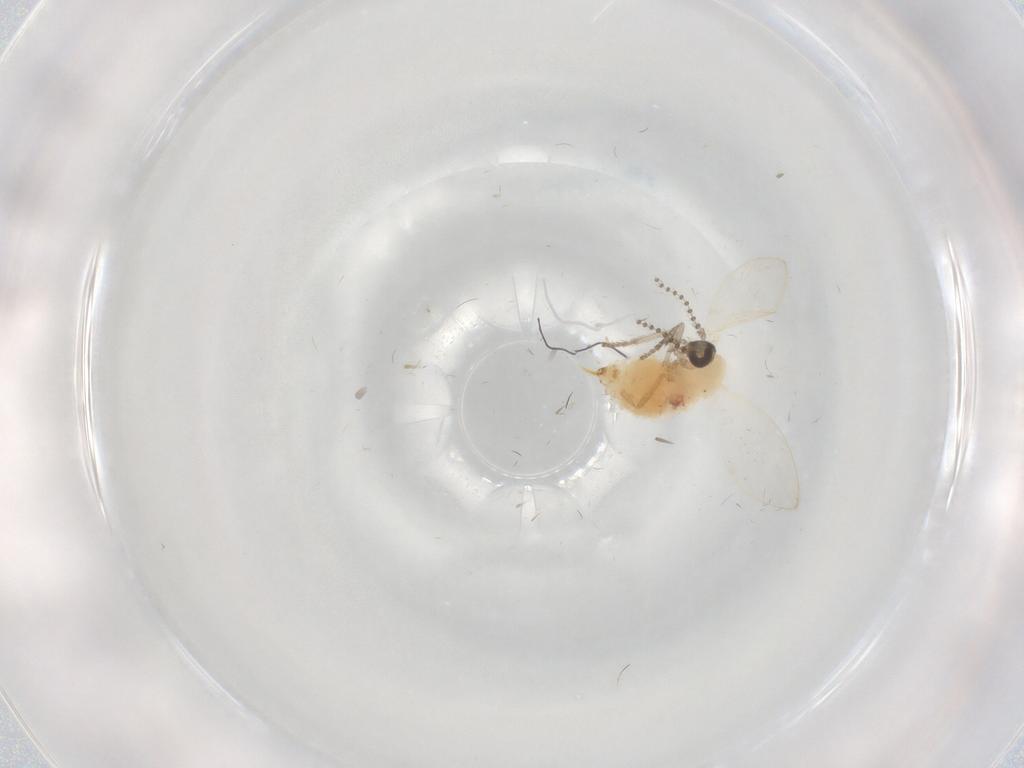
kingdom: Animalia
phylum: Arthropoda
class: Insecta
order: Diptera
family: Psychodidae
